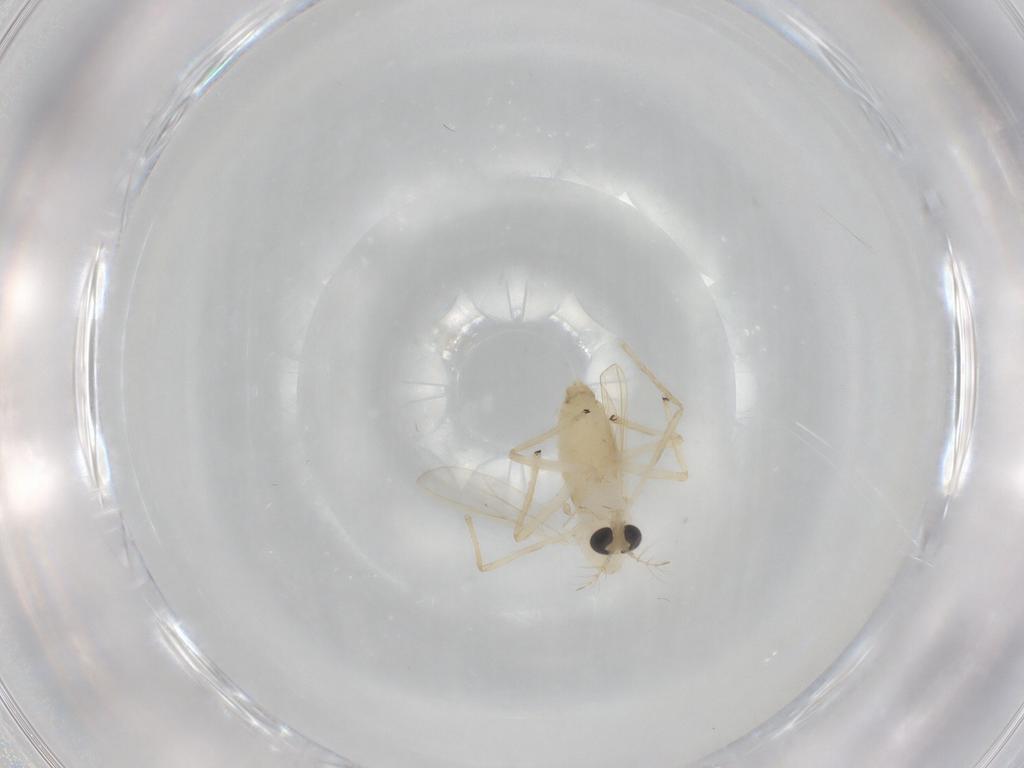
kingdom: Animalia
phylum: Arthropoda
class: Insecta
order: Diptera
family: Chironomidae
